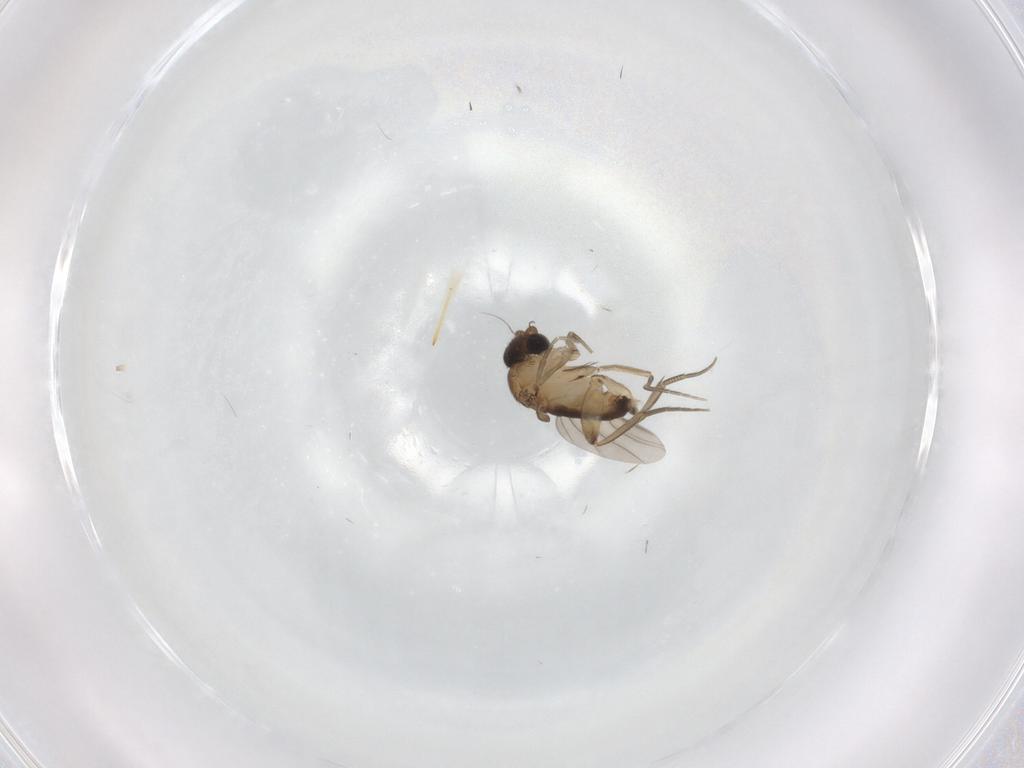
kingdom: Animalia
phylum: Arthropoda
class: Insecta
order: Diptera
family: Phoridae
